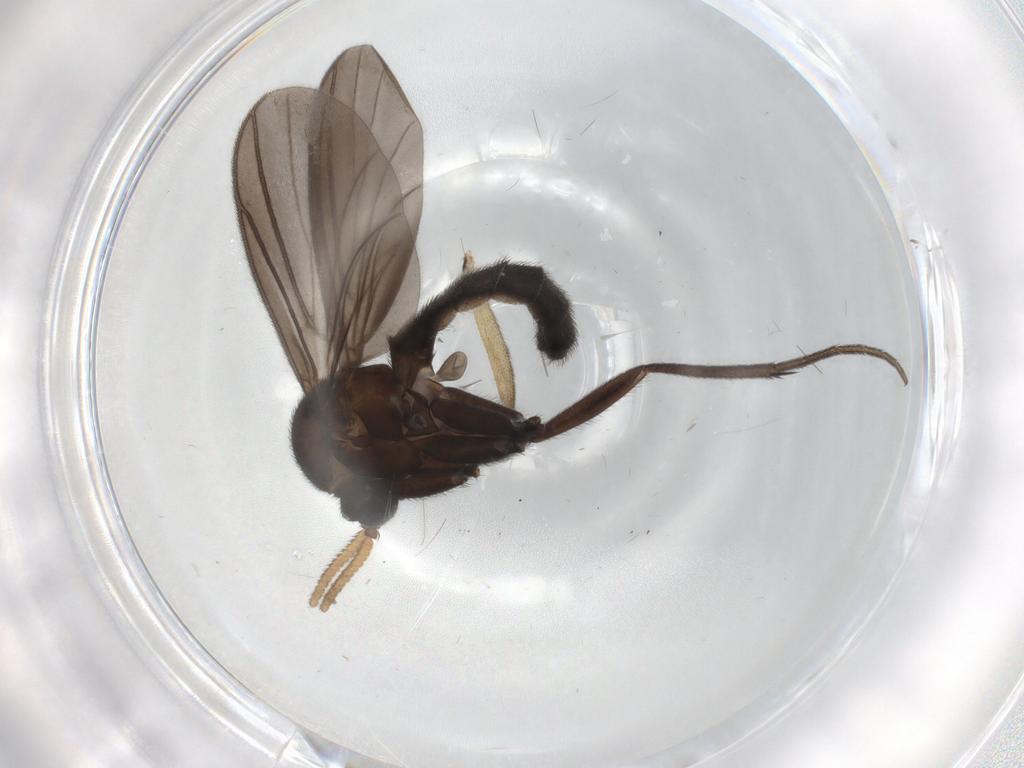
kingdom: Animalia
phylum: Arthropoda
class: Insecta
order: Diptera
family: Mycetophilidae
